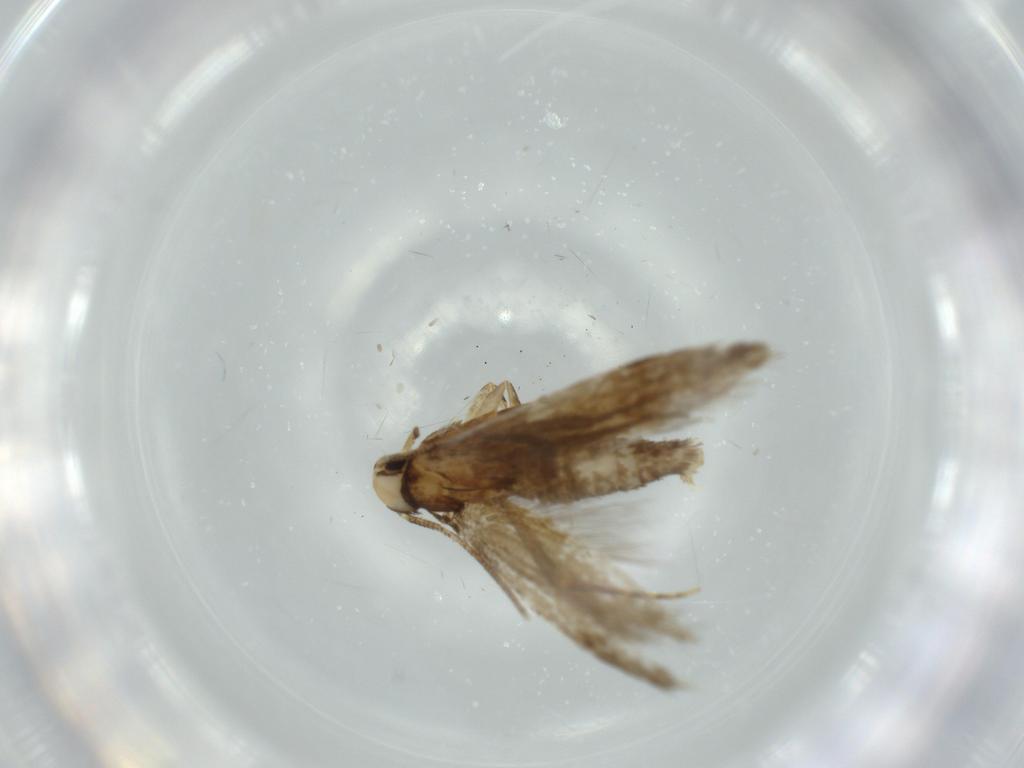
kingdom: Animalia
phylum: Arthropoda
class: Insecta
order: Lepidoptera
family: Tineidae
